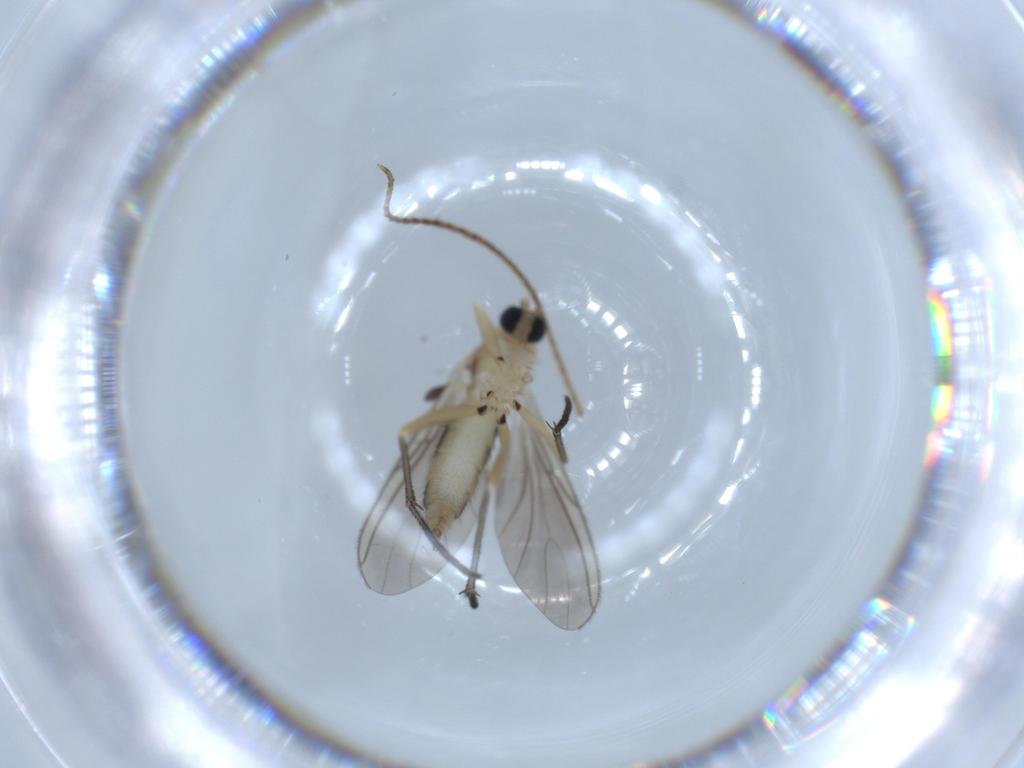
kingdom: Animalia
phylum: Arthropoda
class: Insecta
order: Diptera
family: Sciaridae
